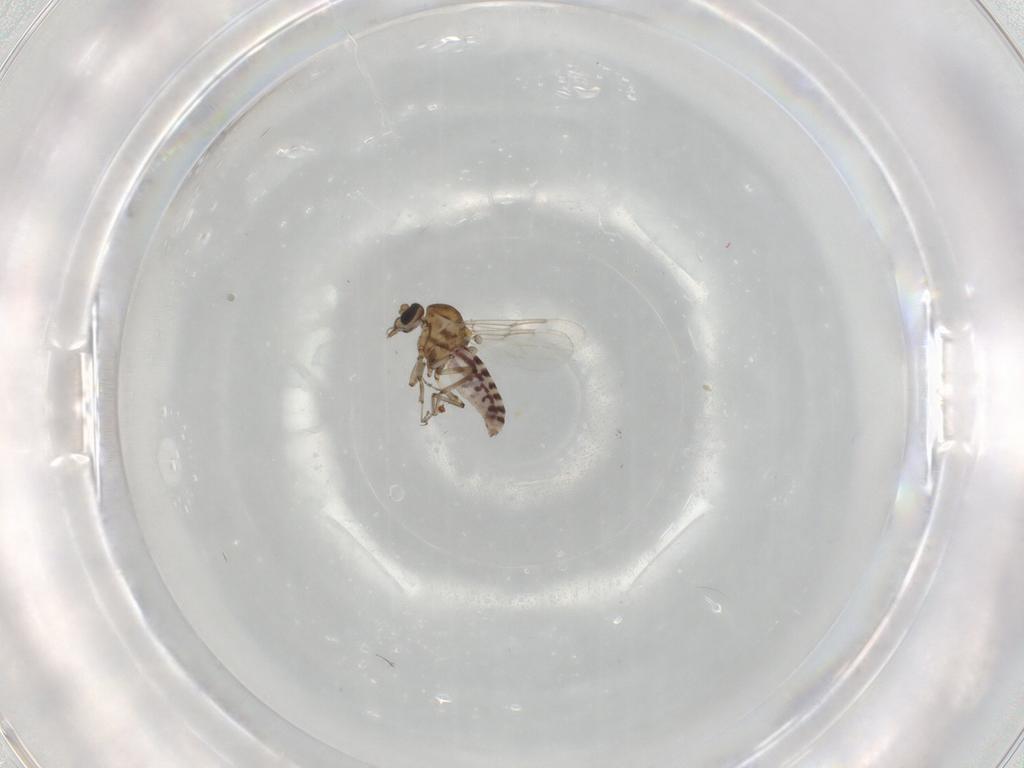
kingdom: Animalia
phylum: Arthropoda
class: Insecta
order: Diptera
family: Ceratopogonidae
